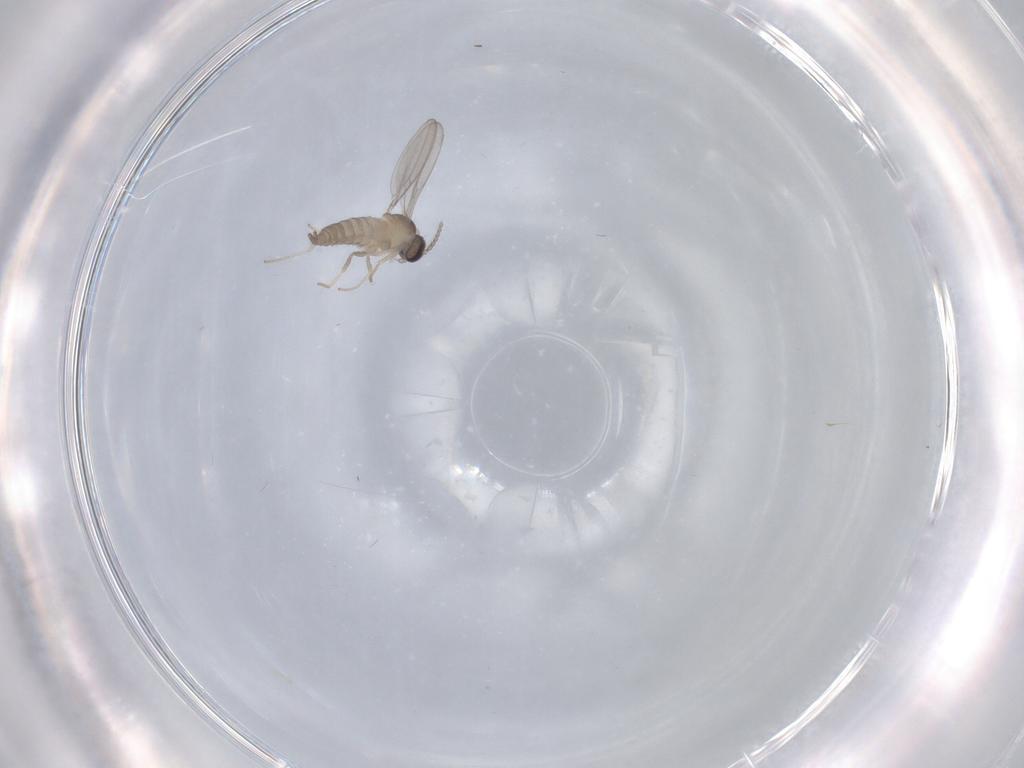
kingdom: Animalia
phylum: Arthropoda
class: Insecta
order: Diptera
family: Cecidomyiidae
